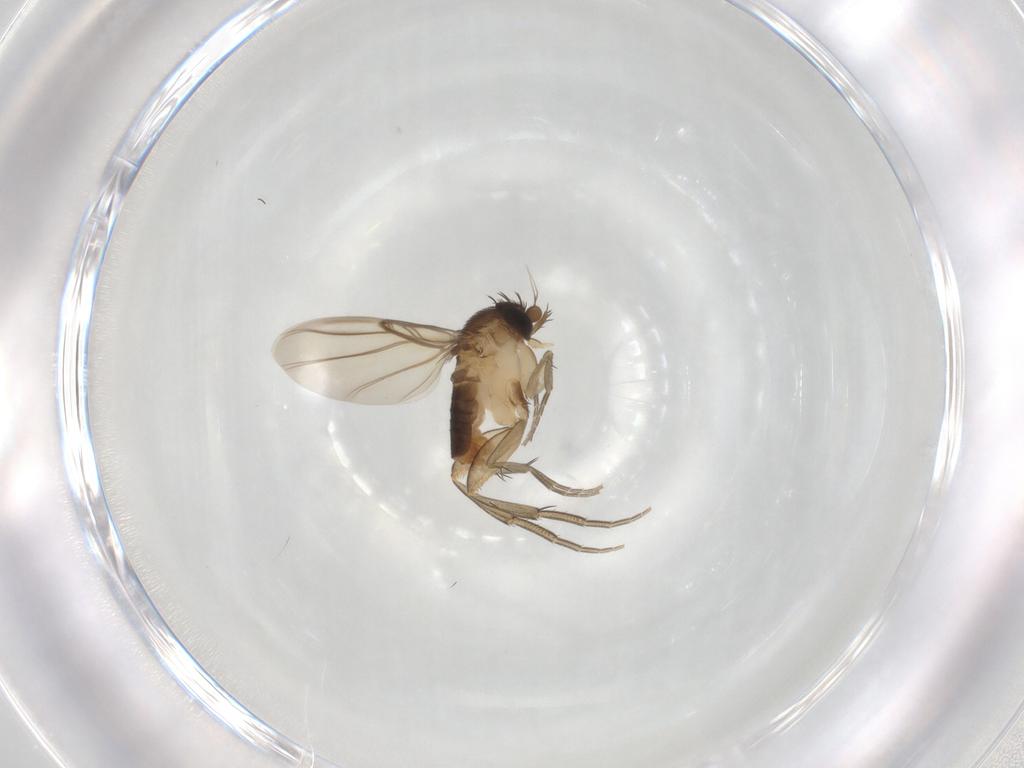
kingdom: Animalia
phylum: Arthropoda
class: Insecta
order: Diptera
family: Phoridae
